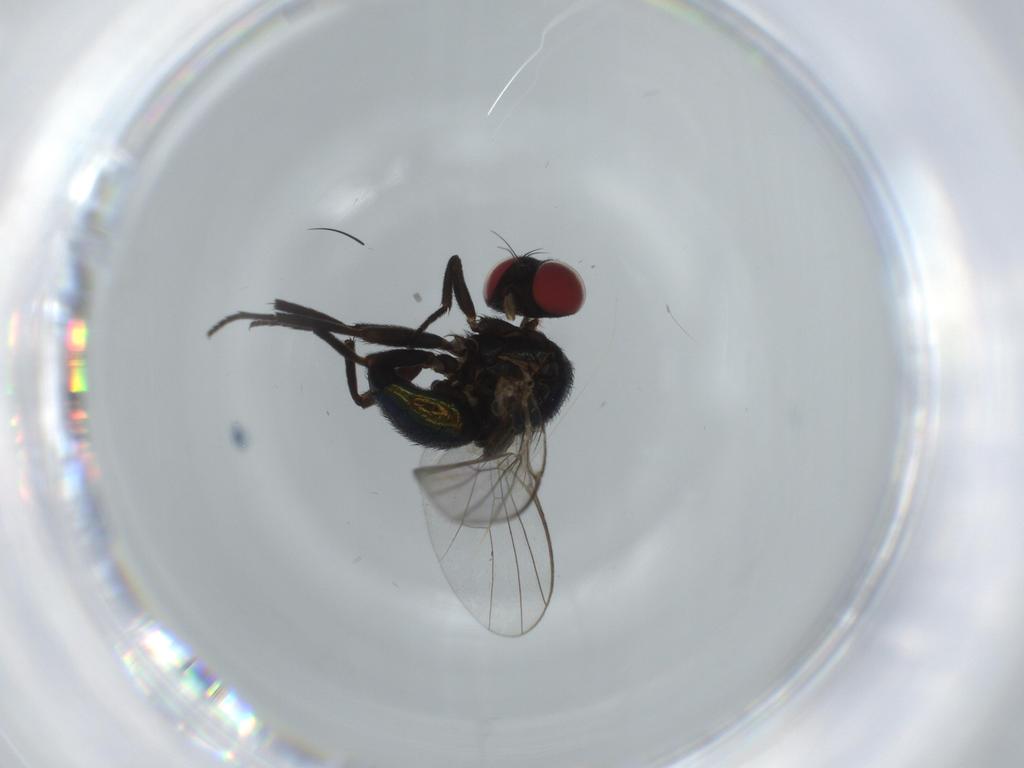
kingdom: Animalia
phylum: Arthropoda
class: Insecta
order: Diptera
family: Agromyzidae
